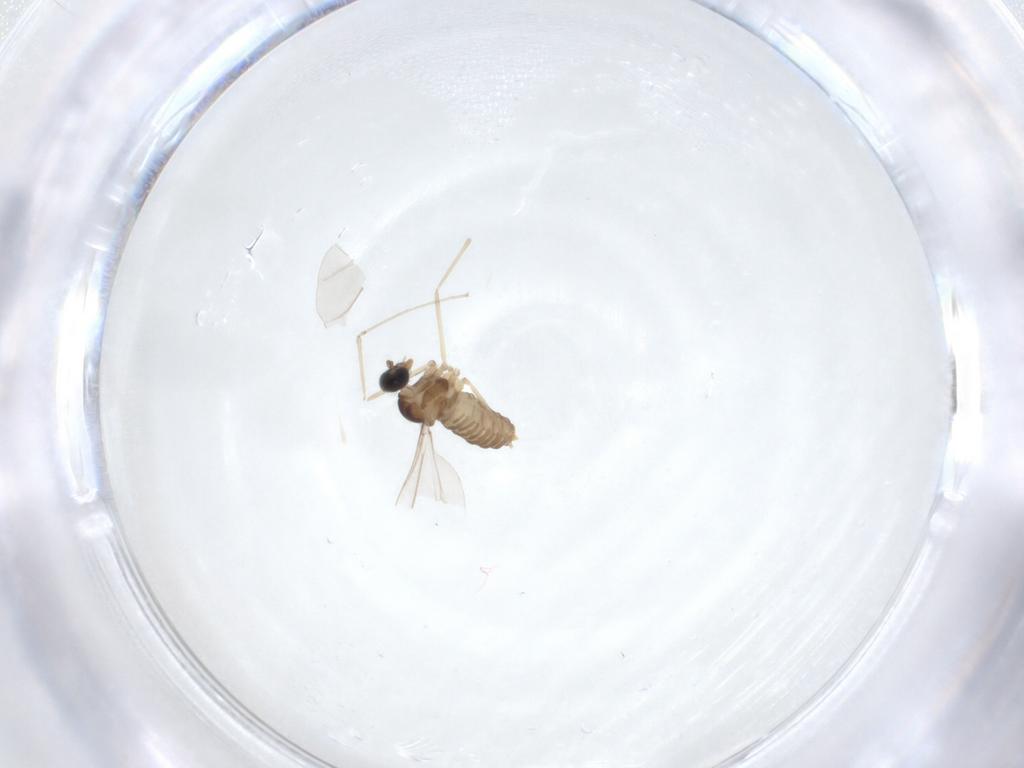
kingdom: Animalia
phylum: Arthropoda
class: Insecta
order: Diptera
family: Cecidomyiidae
